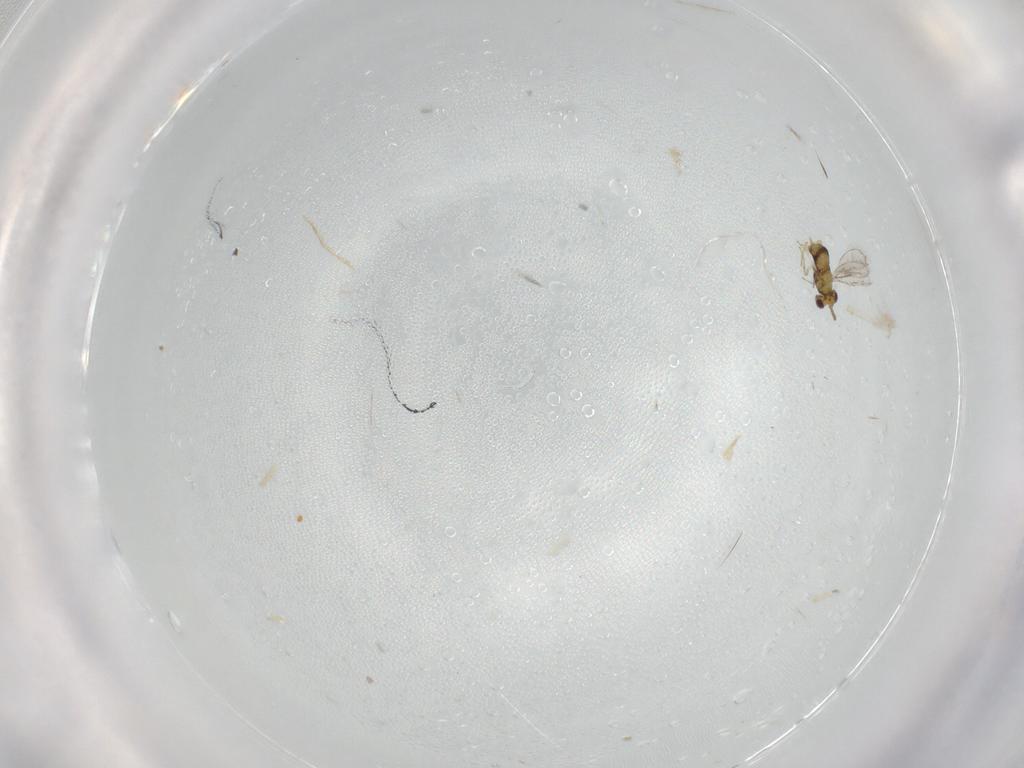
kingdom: Animalia
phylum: Arthropoda
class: Insecta
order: Hymenoptera
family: Aphelinidae
